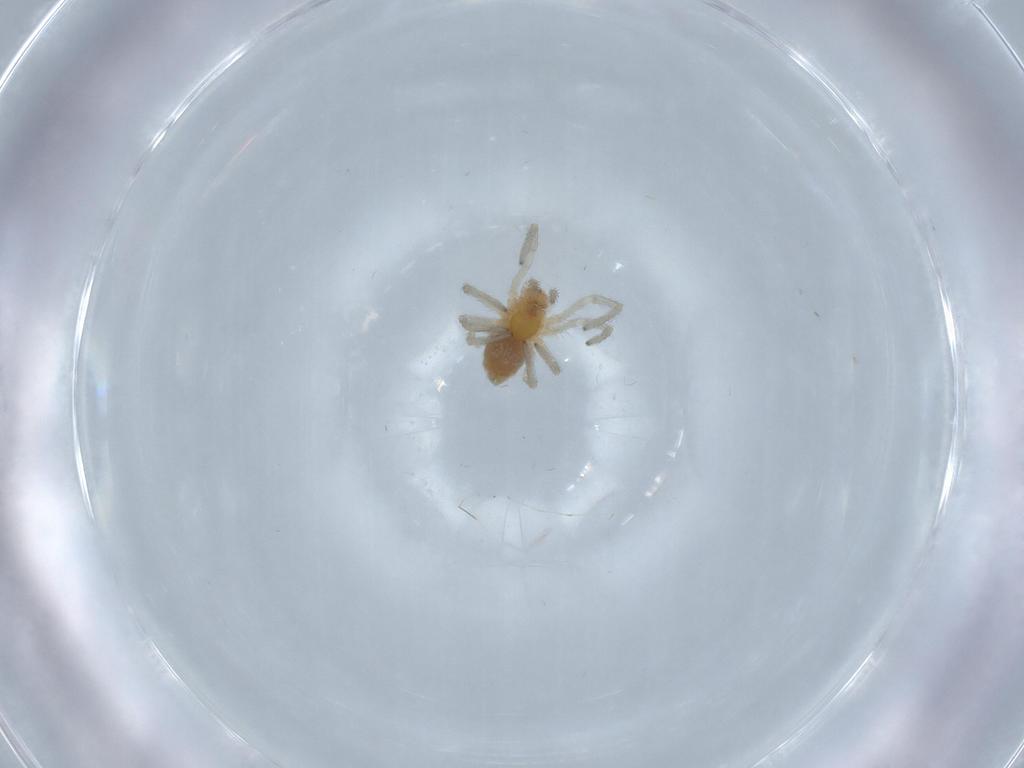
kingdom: Animalia
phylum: Arthropoda
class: Arachnida
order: Araneae
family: Dictynidae
